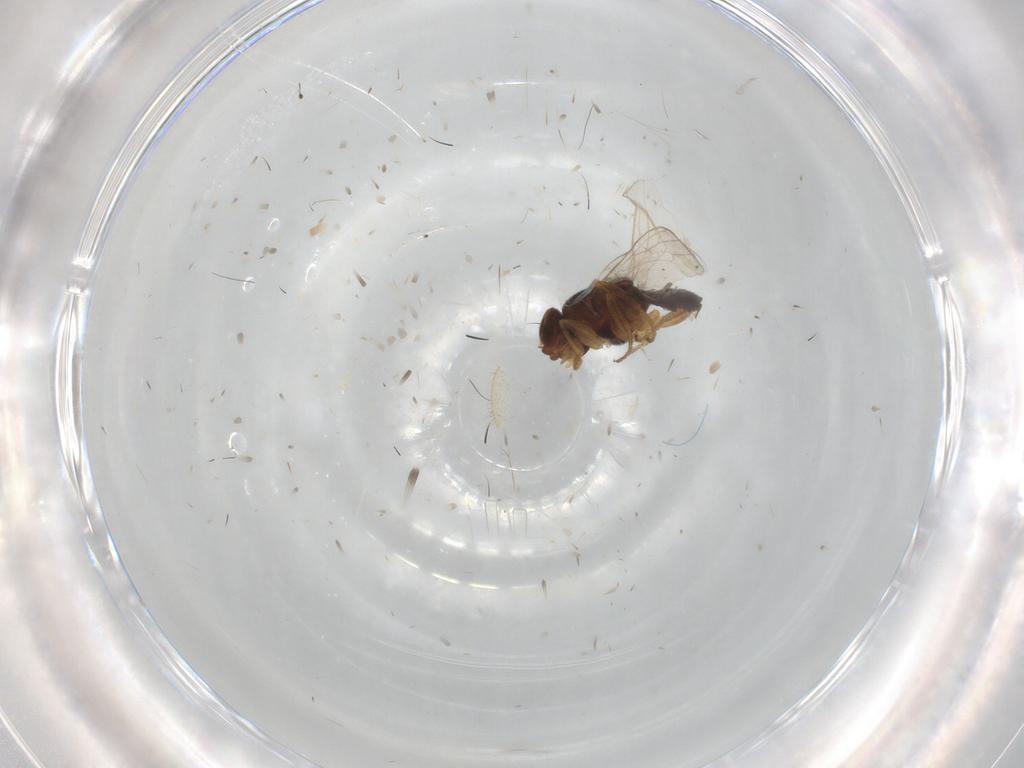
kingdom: Animalia
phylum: Arthropoda
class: Insecta
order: Diptera
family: Chloropidae
